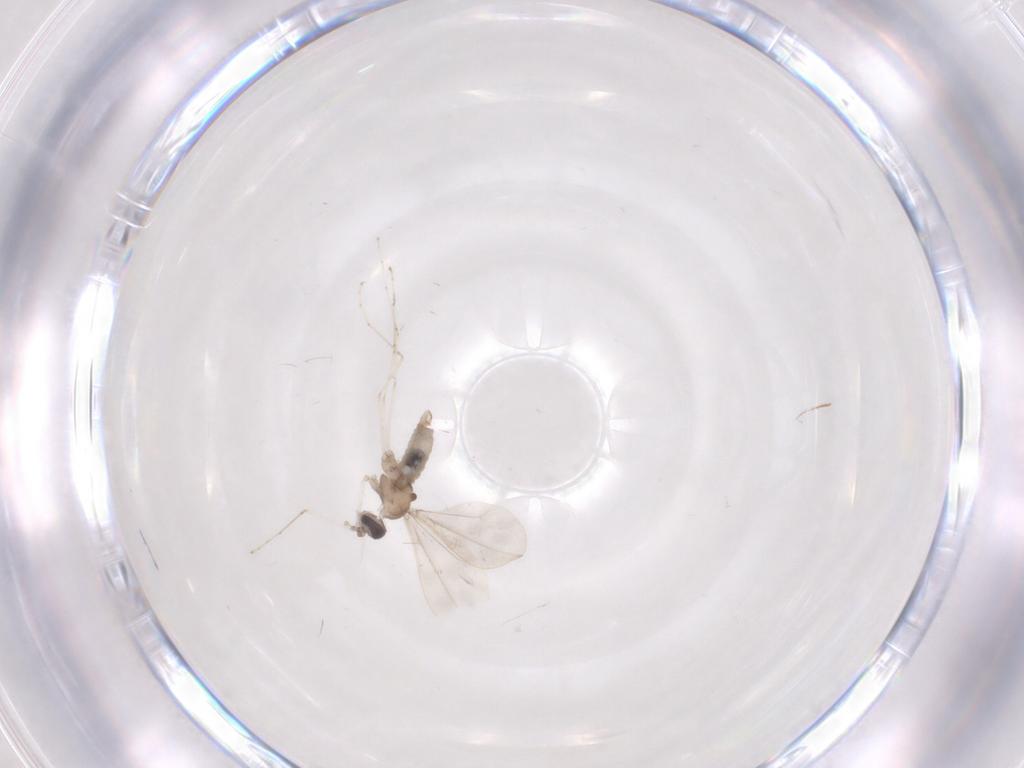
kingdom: Animalia
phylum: Arthropoda
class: Insecta
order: Diptera
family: Cecidomyiidae
